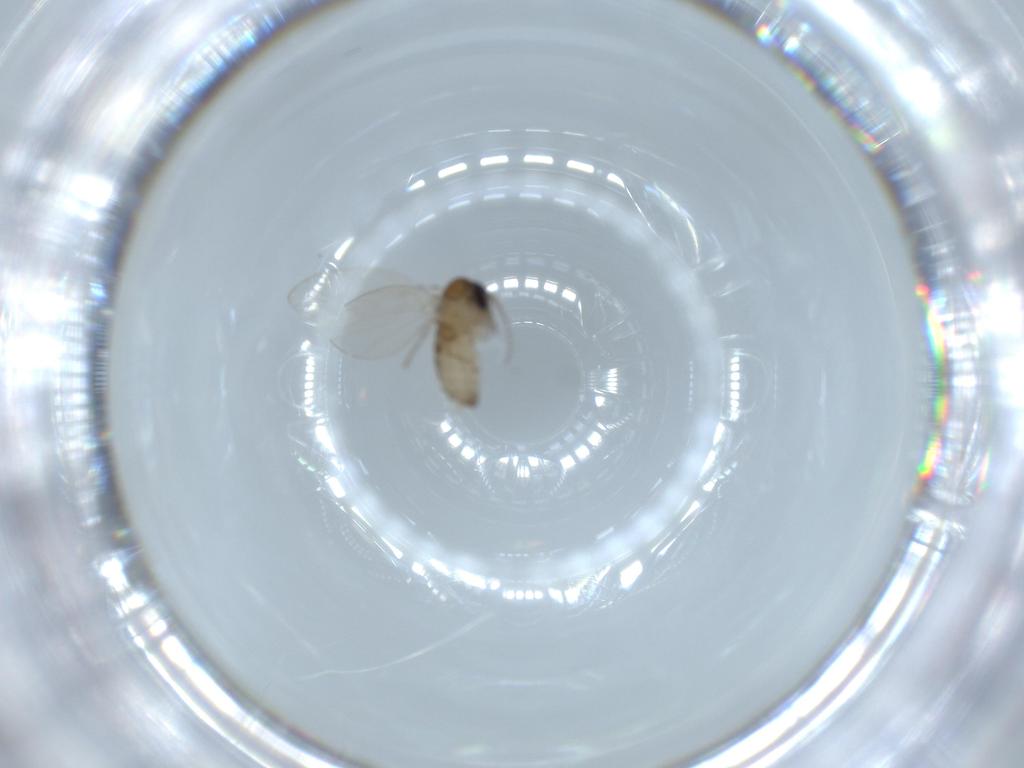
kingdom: Animalia
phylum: Arthropoda
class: Insecta
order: Diptera
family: Psychodidae
